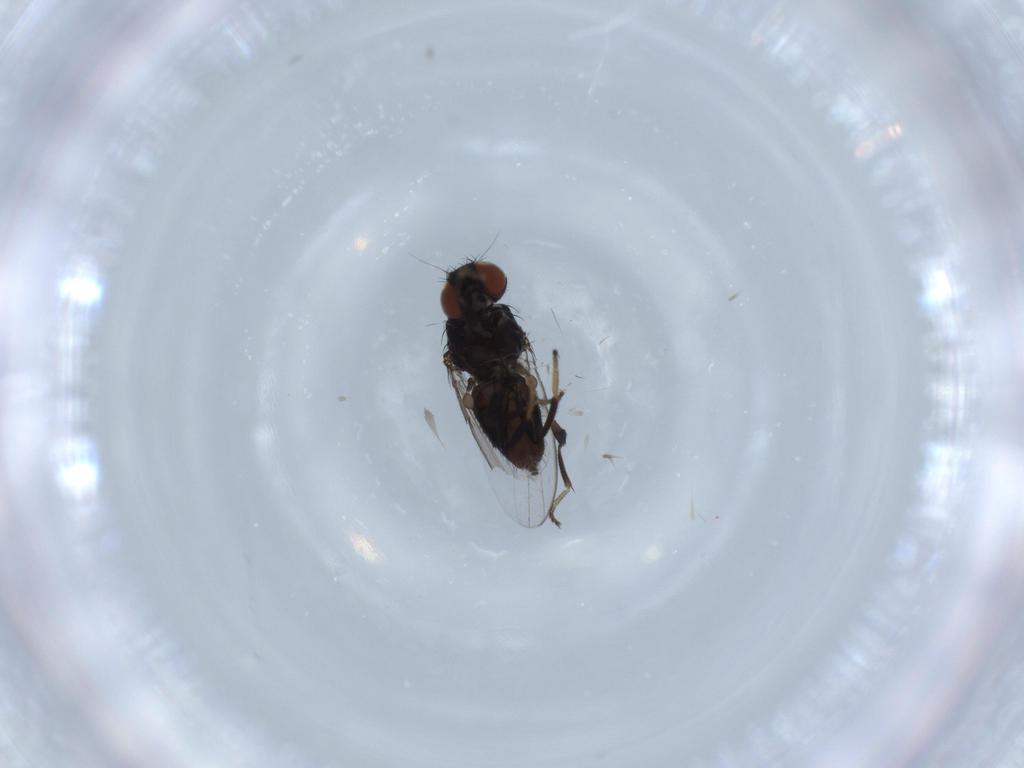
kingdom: Animalia
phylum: Arthropoda
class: Insecta
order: Diptera
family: Milichiidae
